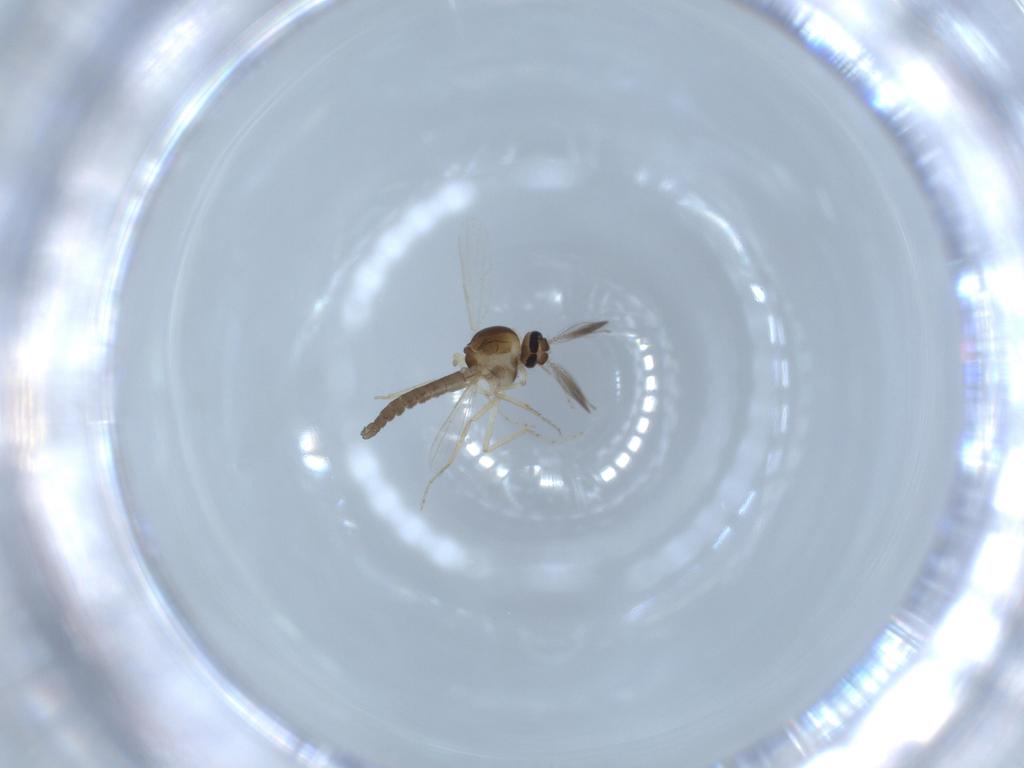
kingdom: Animalia
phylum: Arthropoda
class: Insecta
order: Diptera
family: Ceratopogonidae
